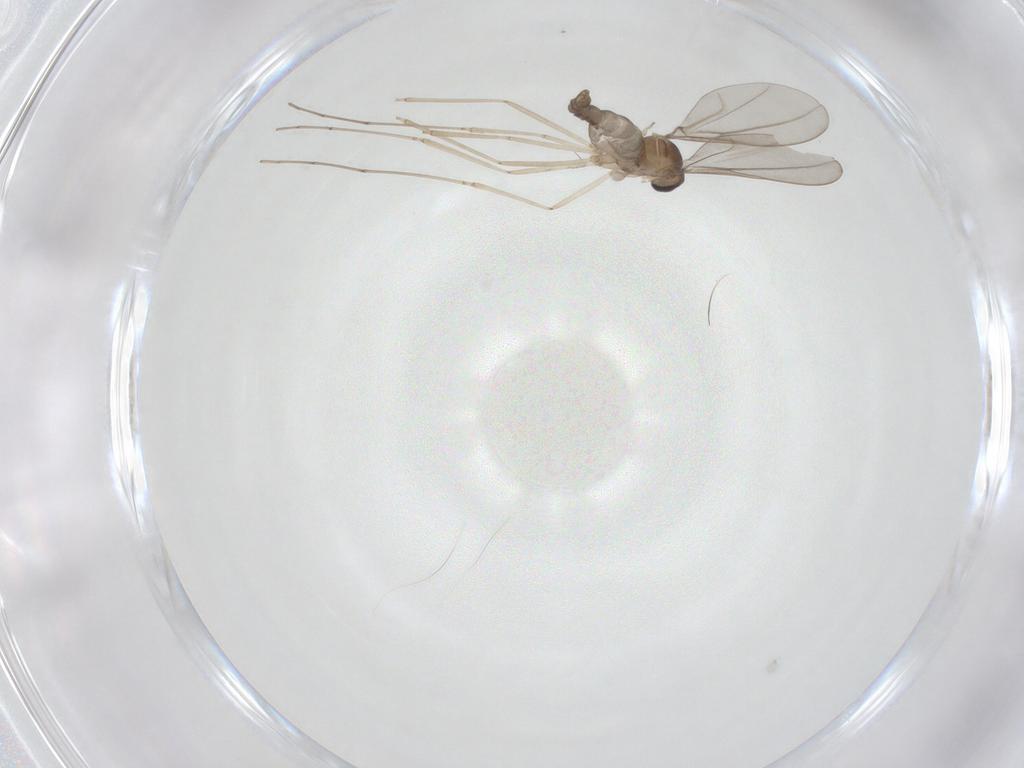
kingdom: Animalia
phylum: Arthropoda
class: Insecta
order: Diptera
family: Cecidomyiidae
